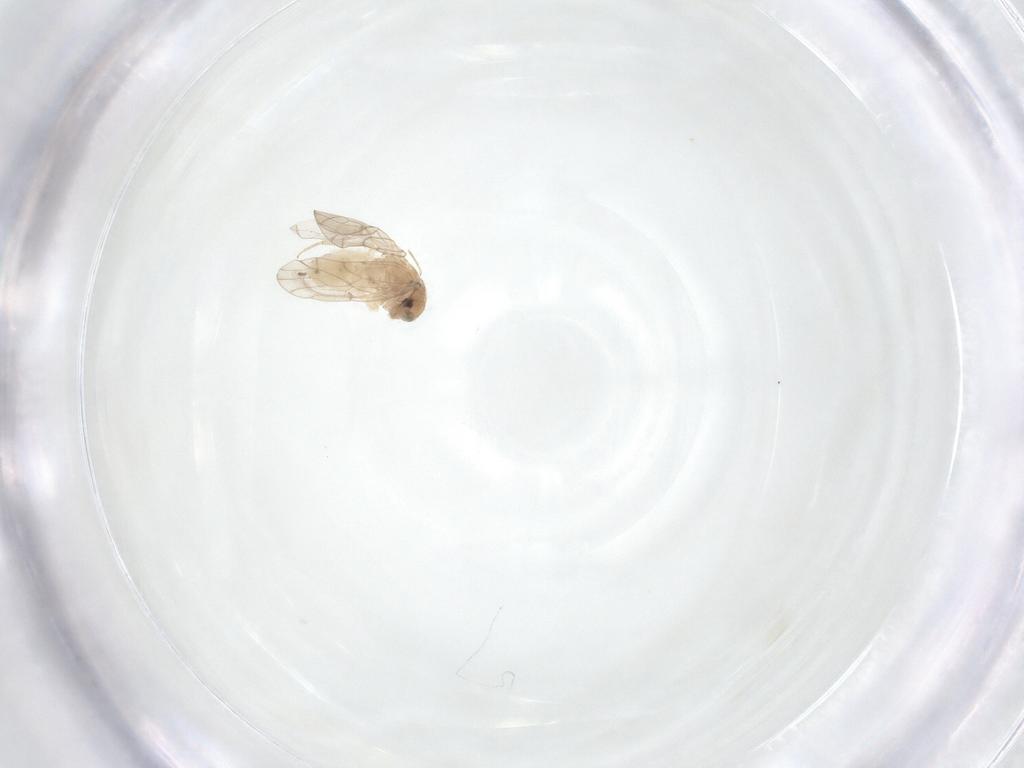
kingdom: Animalia
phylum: Arthropoda
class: Insecta
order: Psocodea
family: Ectopsocidae
